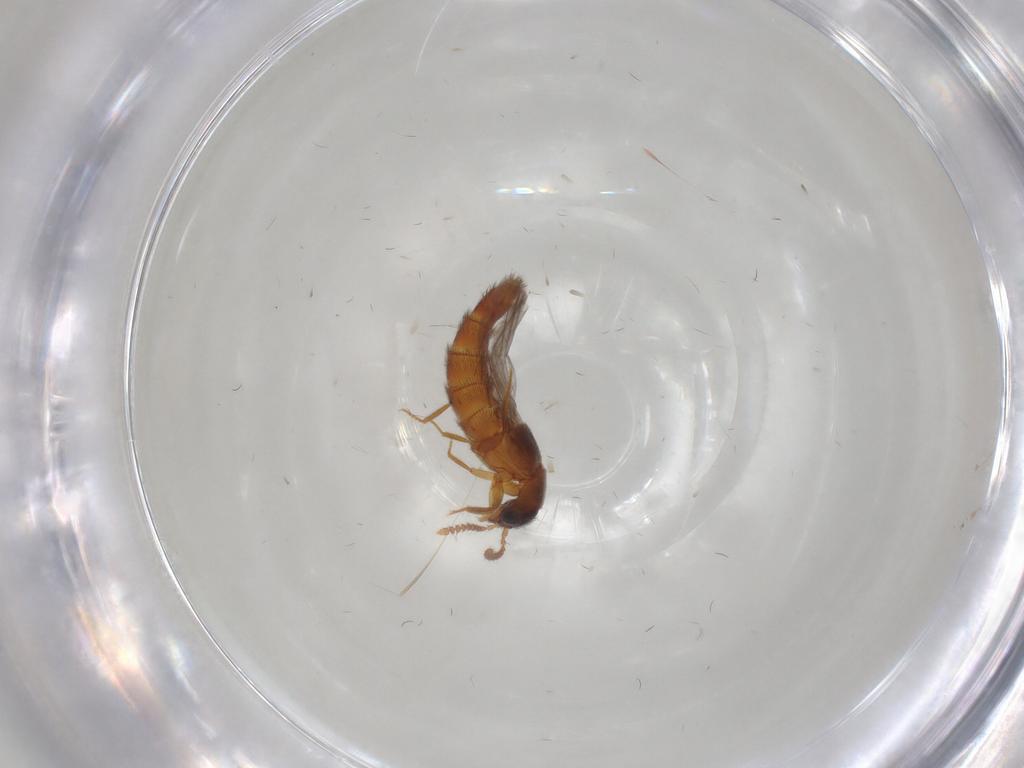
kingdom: Animalia
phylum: Arthropoda
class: Insecta
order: Coleoptera
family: Staphylinidae
